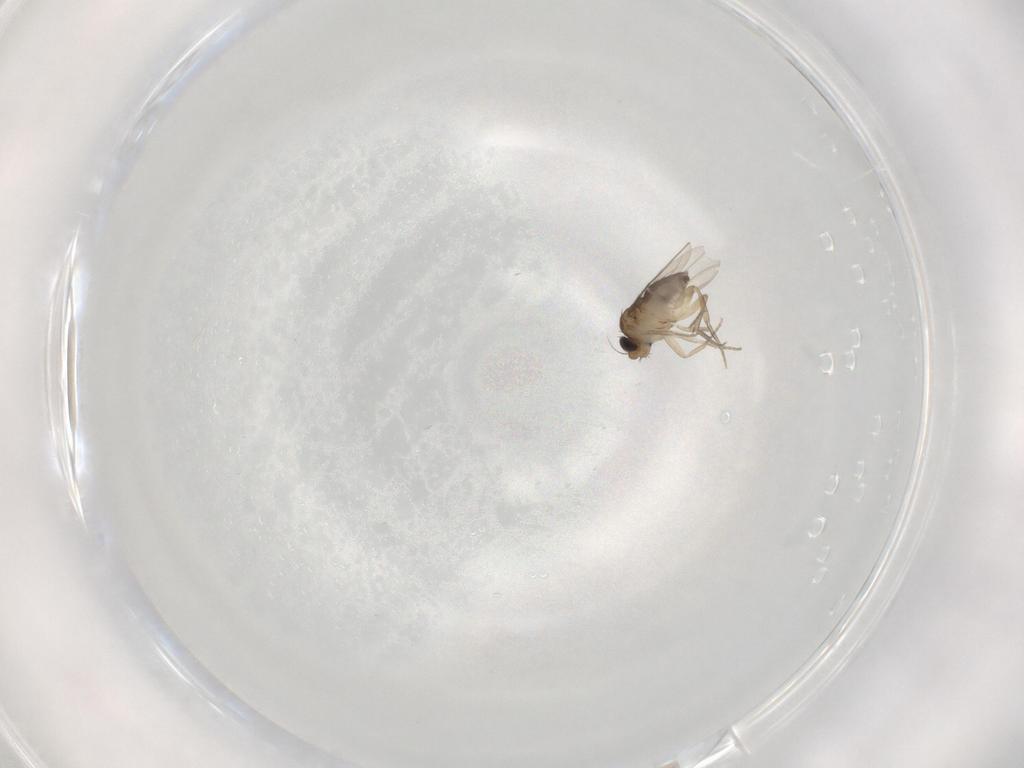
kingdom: Animalia
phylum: Arthropoda
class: Insecta
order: Diptera
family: Phoridae
